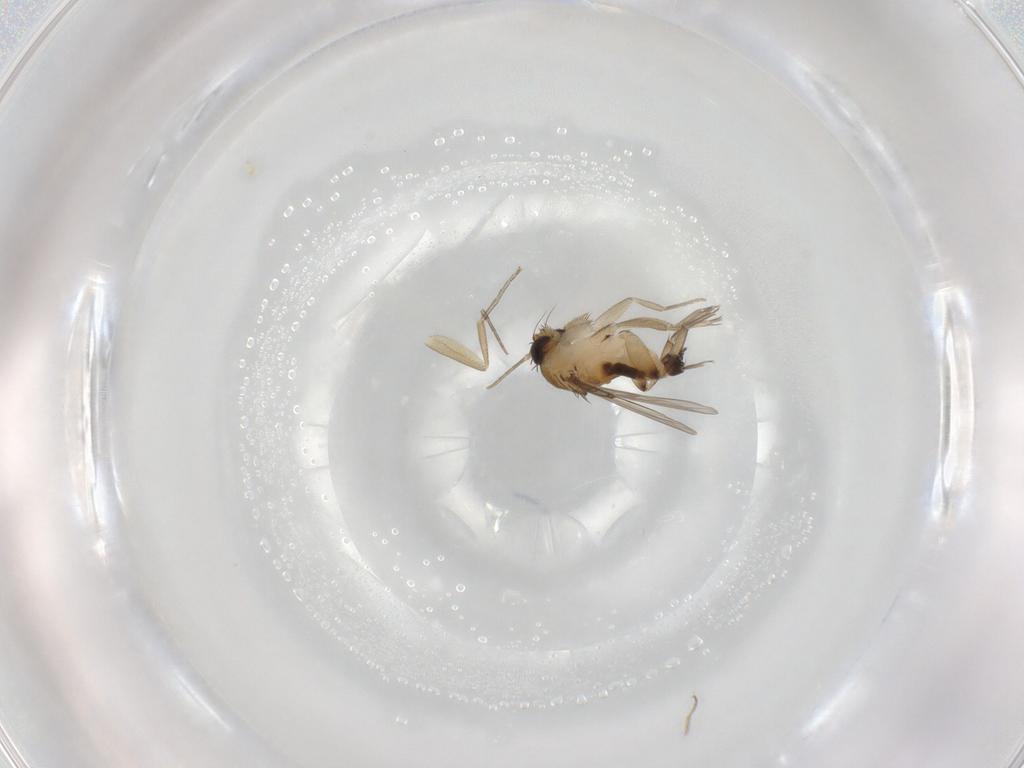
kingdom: Animalia
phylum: Arthropoda
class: Insecta
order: Diptera
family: Phoridae
